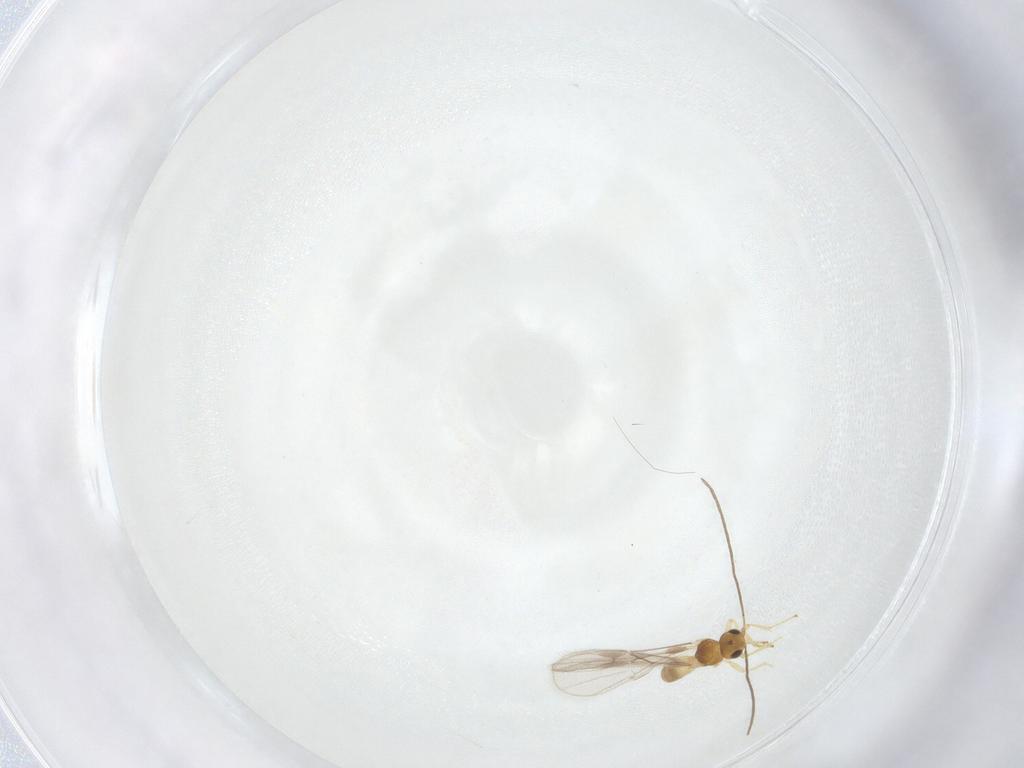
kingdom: Animalia
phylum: Arthropoda
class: Insecta
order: Hymenoptera
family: Braconidae
